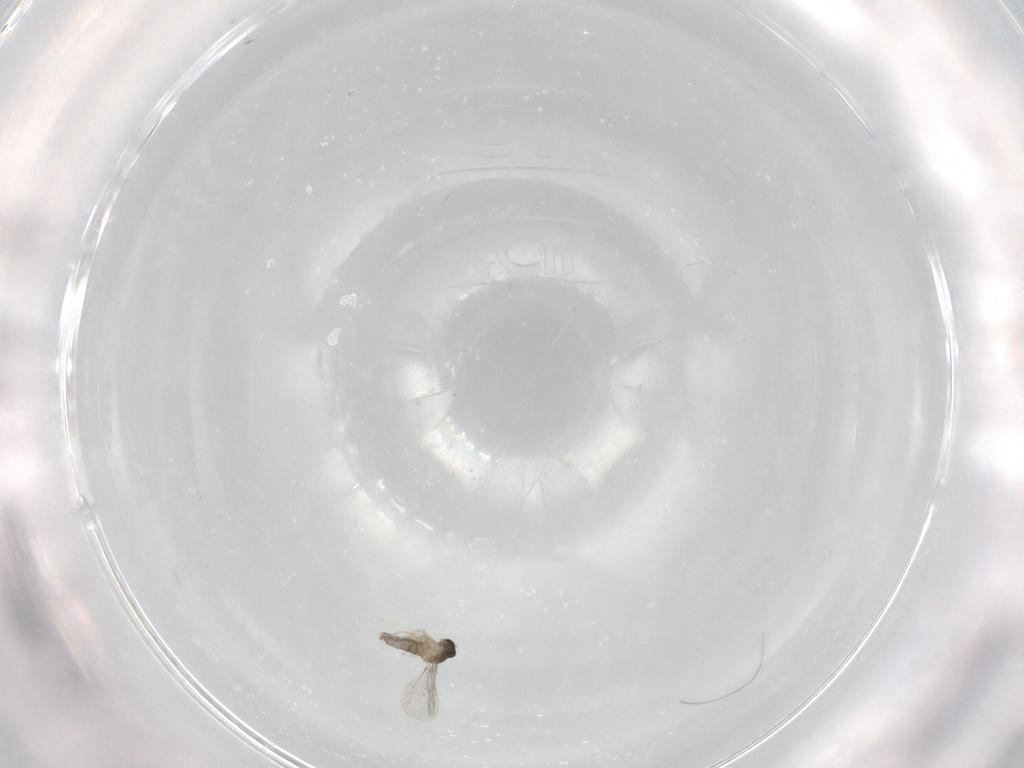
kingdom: Animalia
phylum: Arthropoda
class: Insecta
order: Diptera
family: Cecidomyiidae
